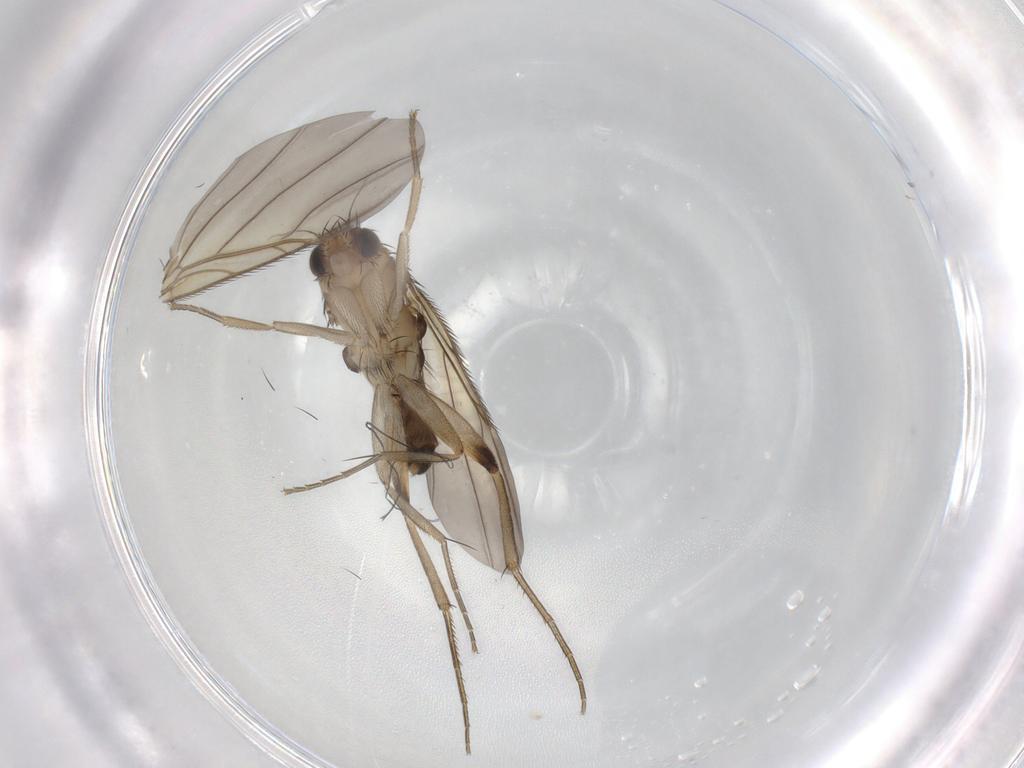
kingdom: Animalia
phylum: Arthropoda
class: Insecta
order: Diptera
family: Phoridae
